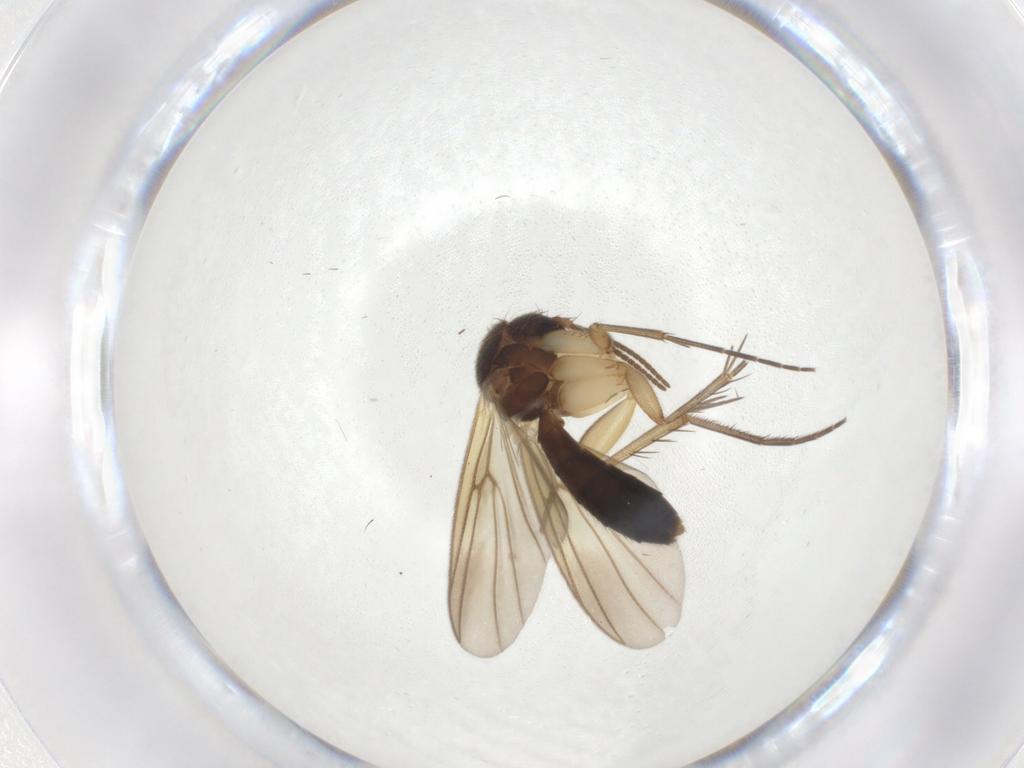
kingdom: Animalia
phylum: Arthropoda
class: Insecta
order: Diptera
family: Mycetophilidae
